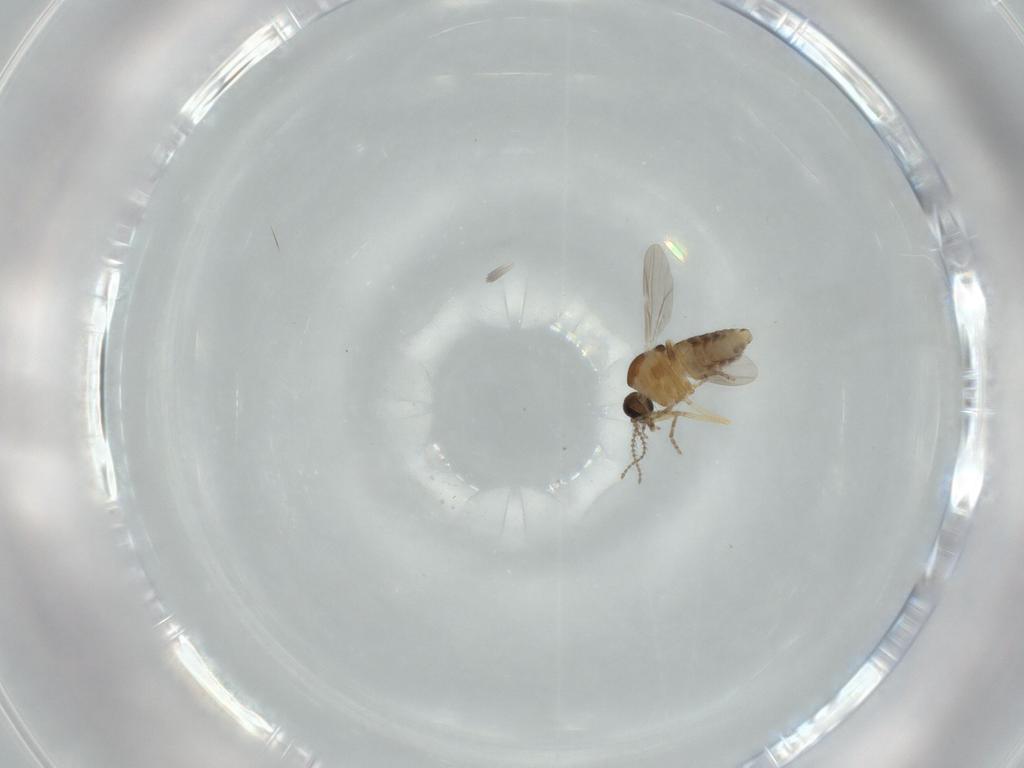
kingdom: Animalia
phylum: Arthropoda
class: Insecta
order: Diptera
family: Ceratopogonidae
